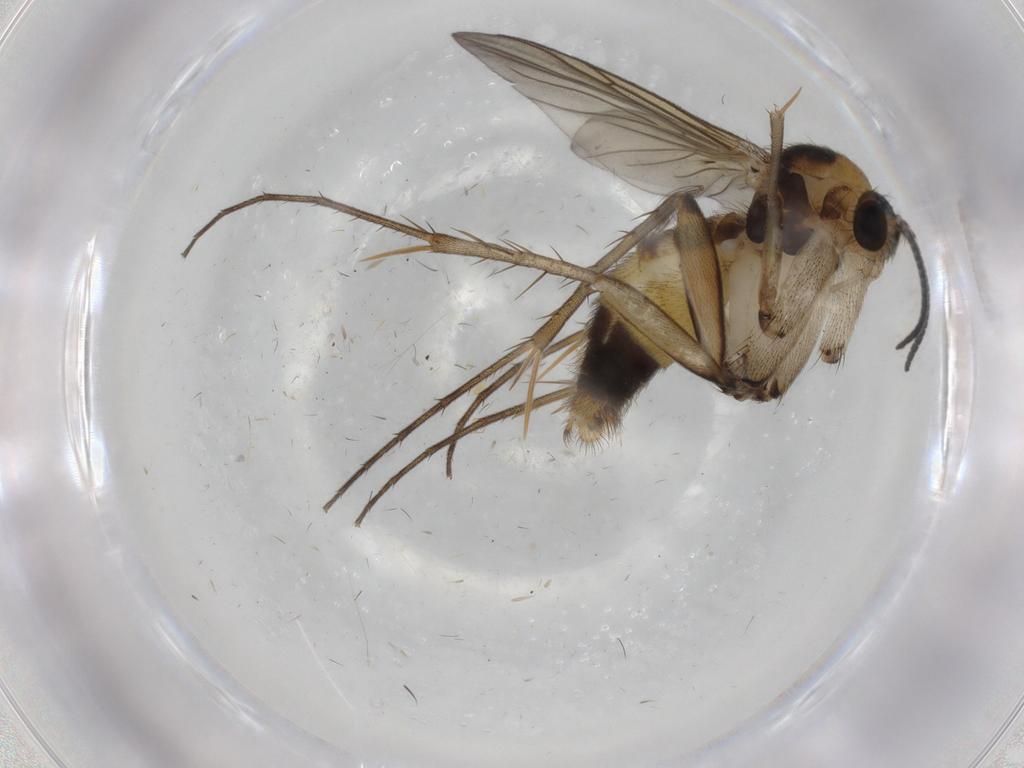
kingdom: Animalia
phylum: Arthropoda
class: Insecta
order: Diptera
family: Mycetophilidae
